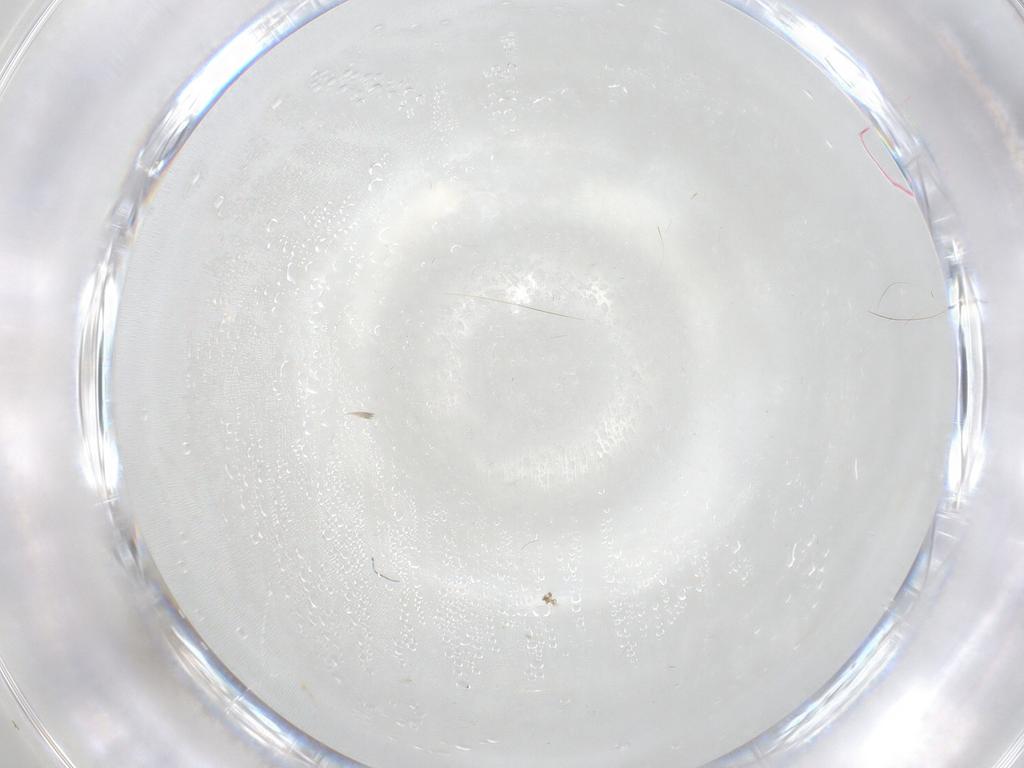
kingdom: Animalia
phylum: Arthropoda
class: Insecta
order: Diptera
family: Chironomidae
